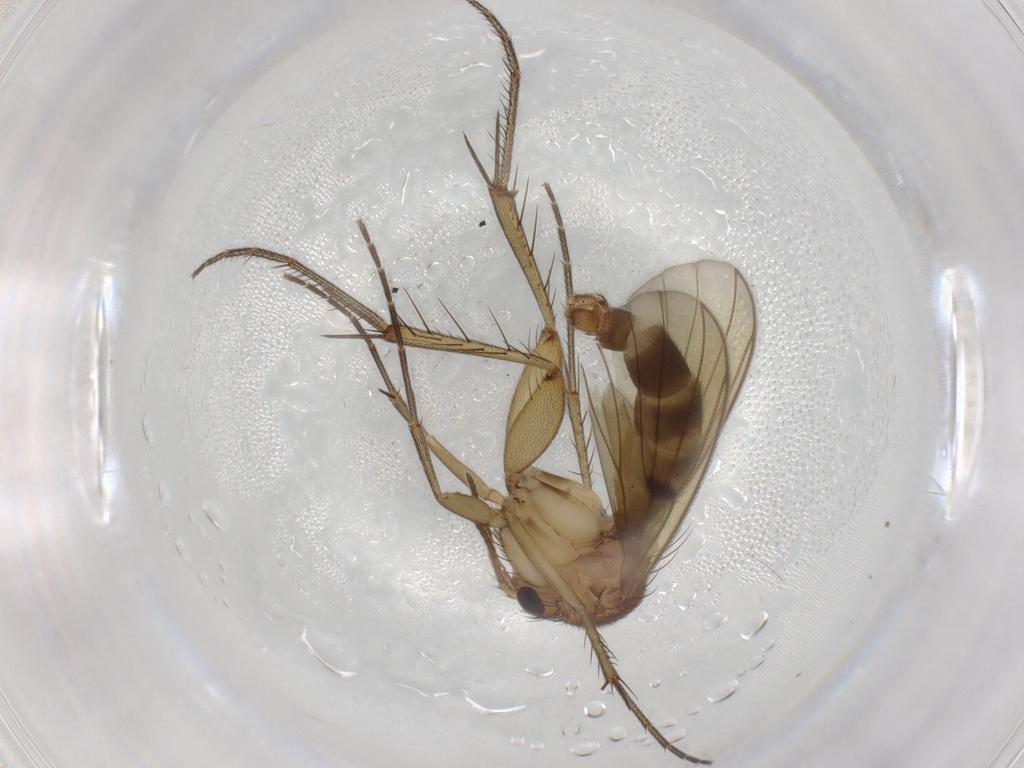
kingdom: Animalia
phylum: Arthropoda
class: Insecta
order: Diptera
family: Mycetophilidae
